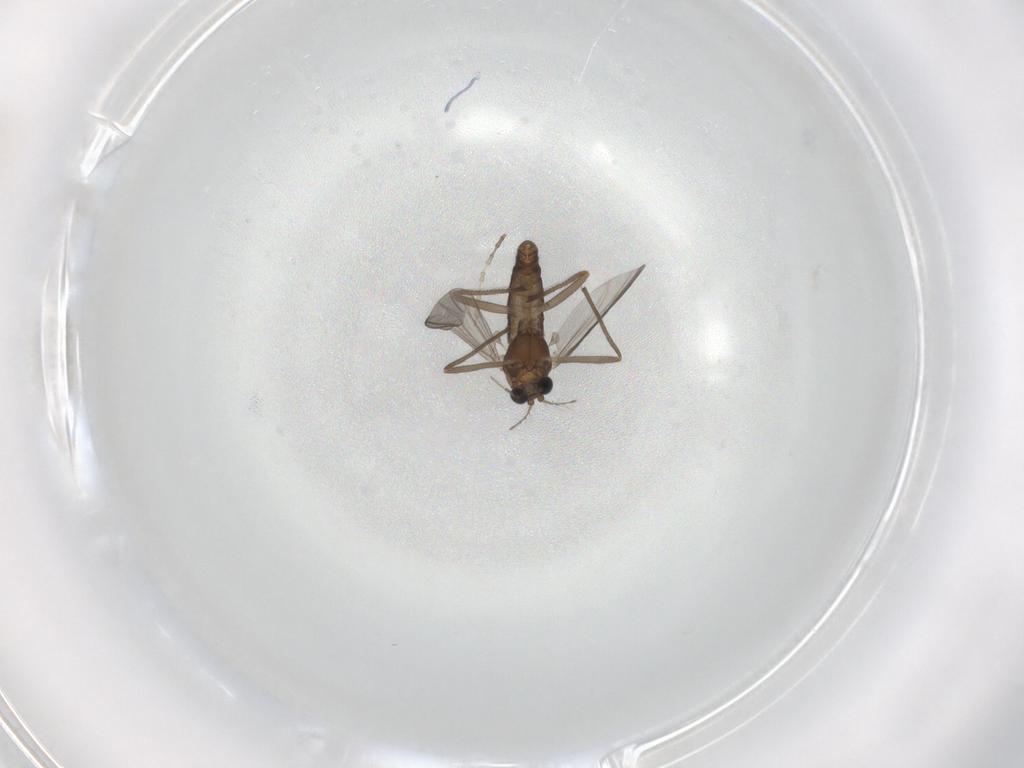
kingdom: Animalia
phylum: Arthropoda
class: Insecta
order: Diptera
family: Chironomidae
